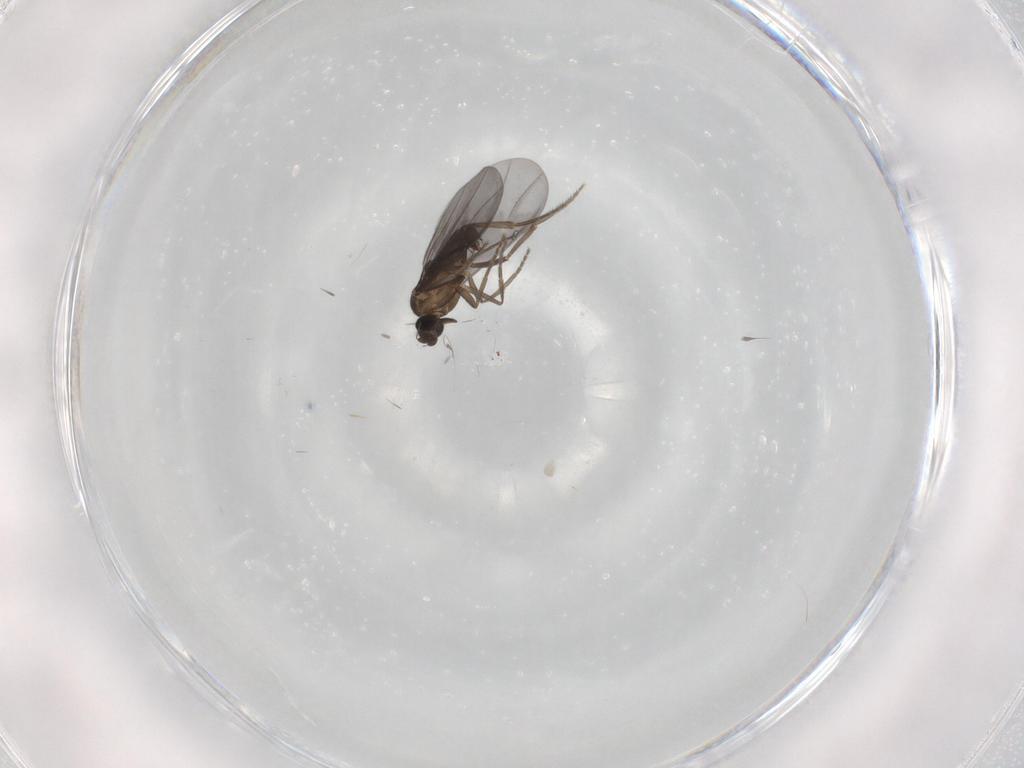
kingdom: Animalia
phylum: Arthropoda
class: Insecta
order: Diptera
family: Phoridae
